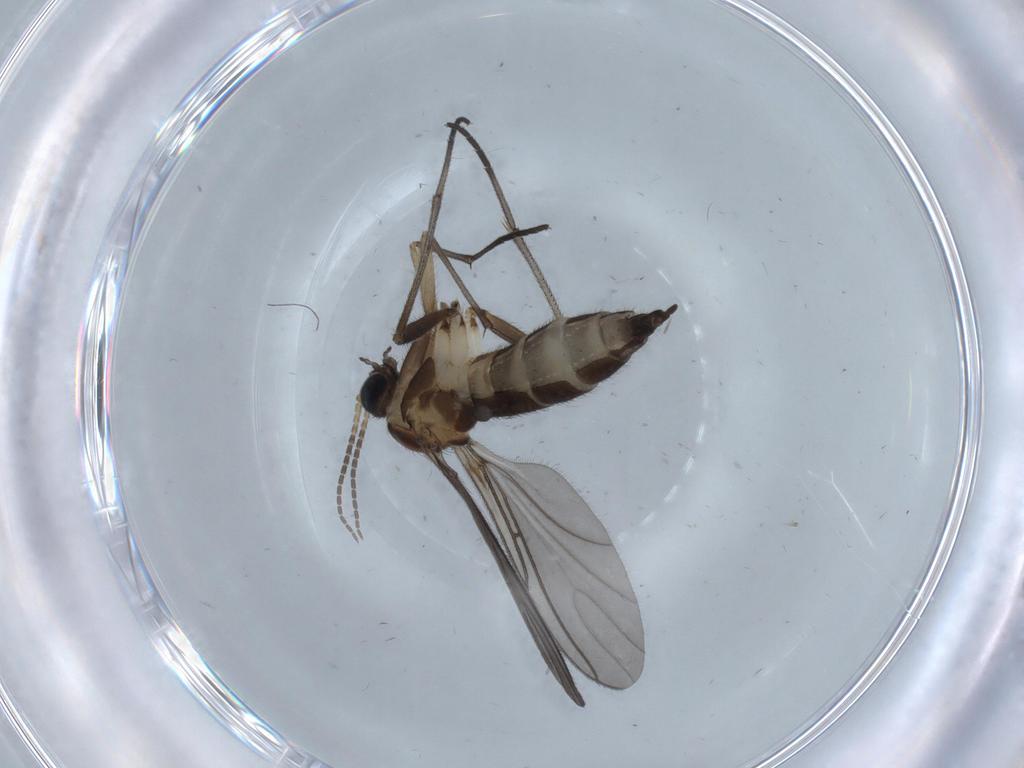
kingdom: Animalia
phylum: Arthropoda
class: Insecta
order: Diptera
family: Sciaridae
